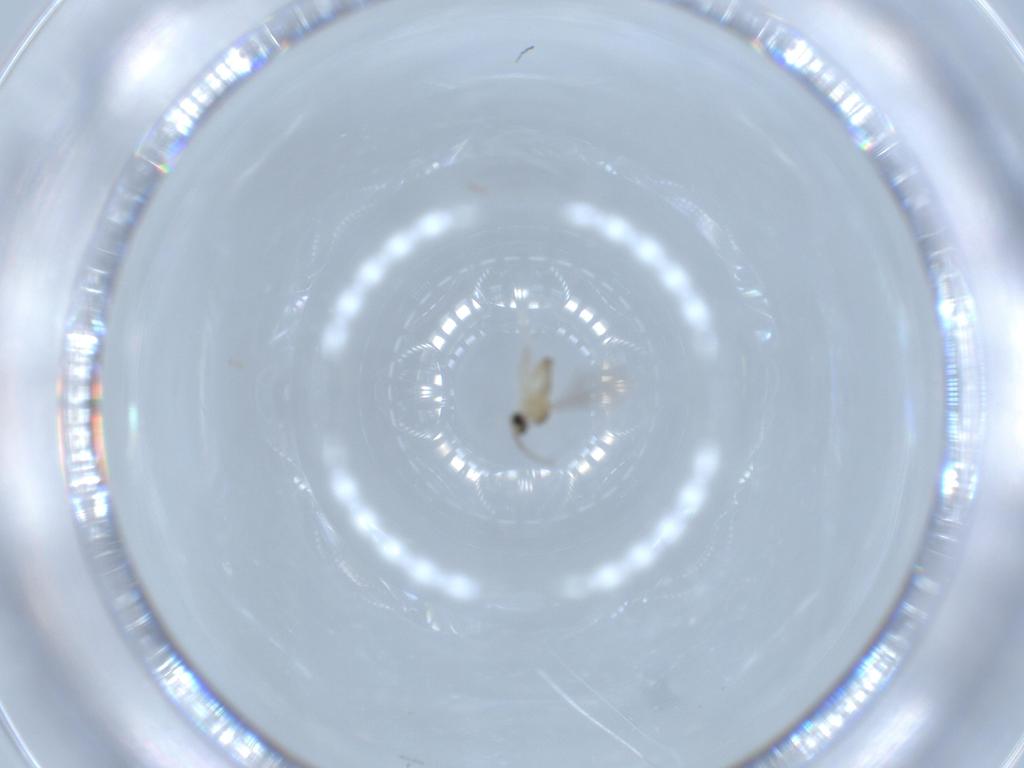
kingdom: Animalia
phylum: Arthropoda
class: Insecta
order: Diptera
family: Cecidomyiidae
